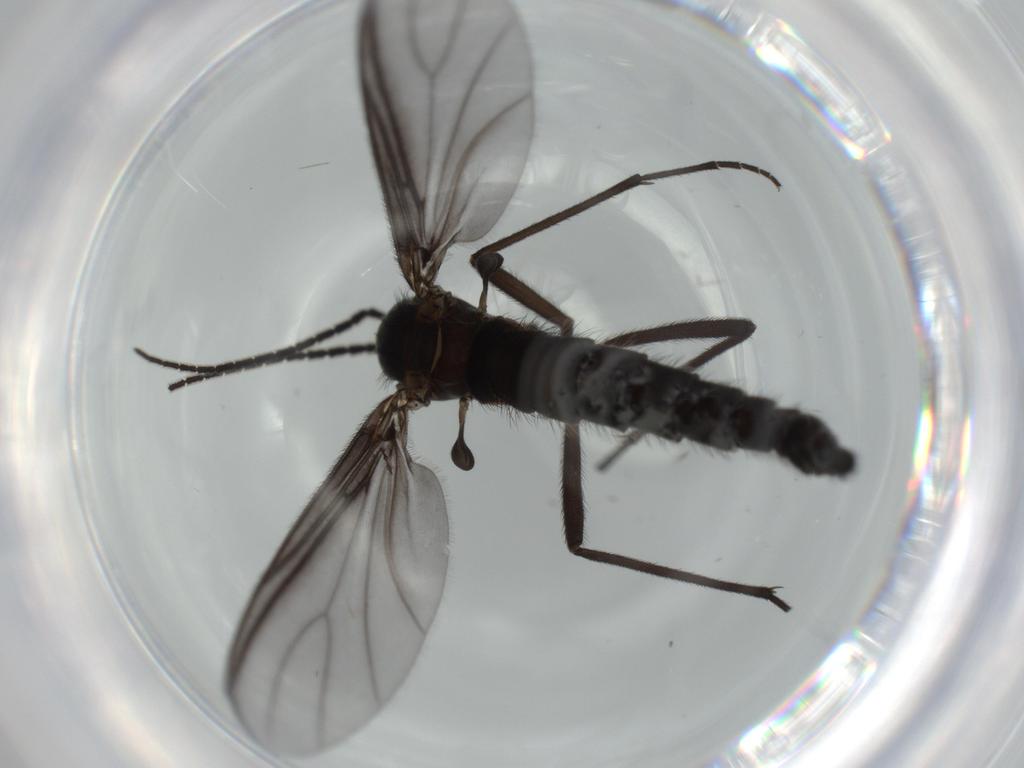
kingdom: Animalia
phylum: Arthropoda
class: Insecta
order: Diptera
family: Sciaridae
